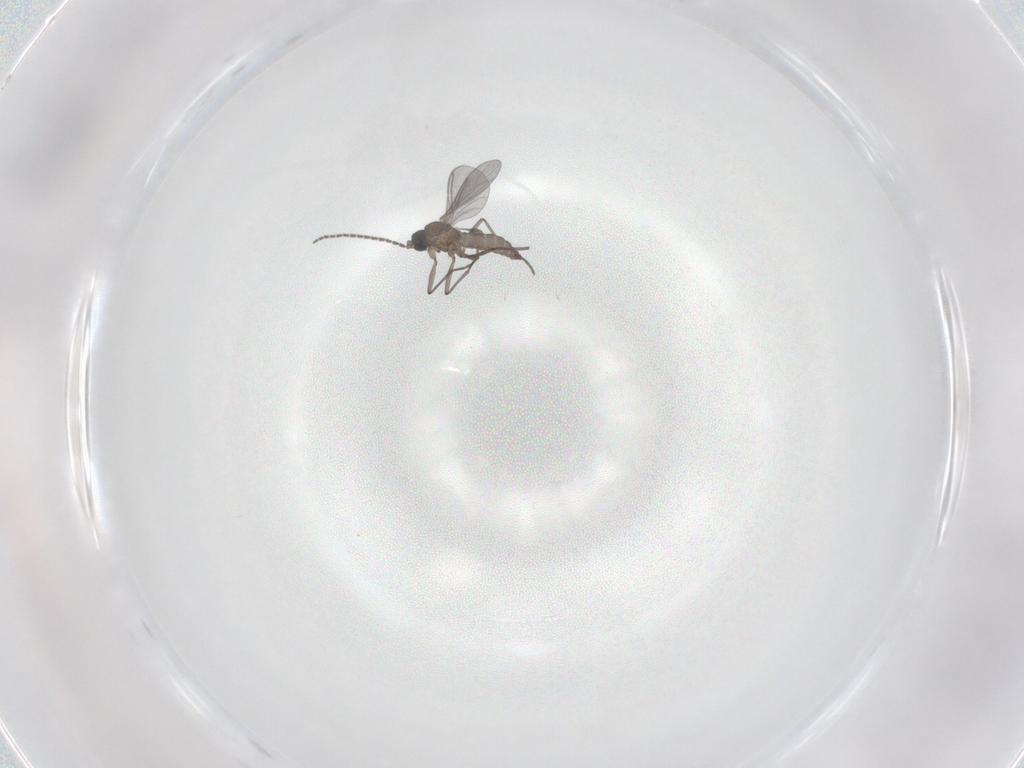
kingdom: Animalia
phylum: Arthropoda
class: Insecta
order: Diptera
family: Sciaridae
